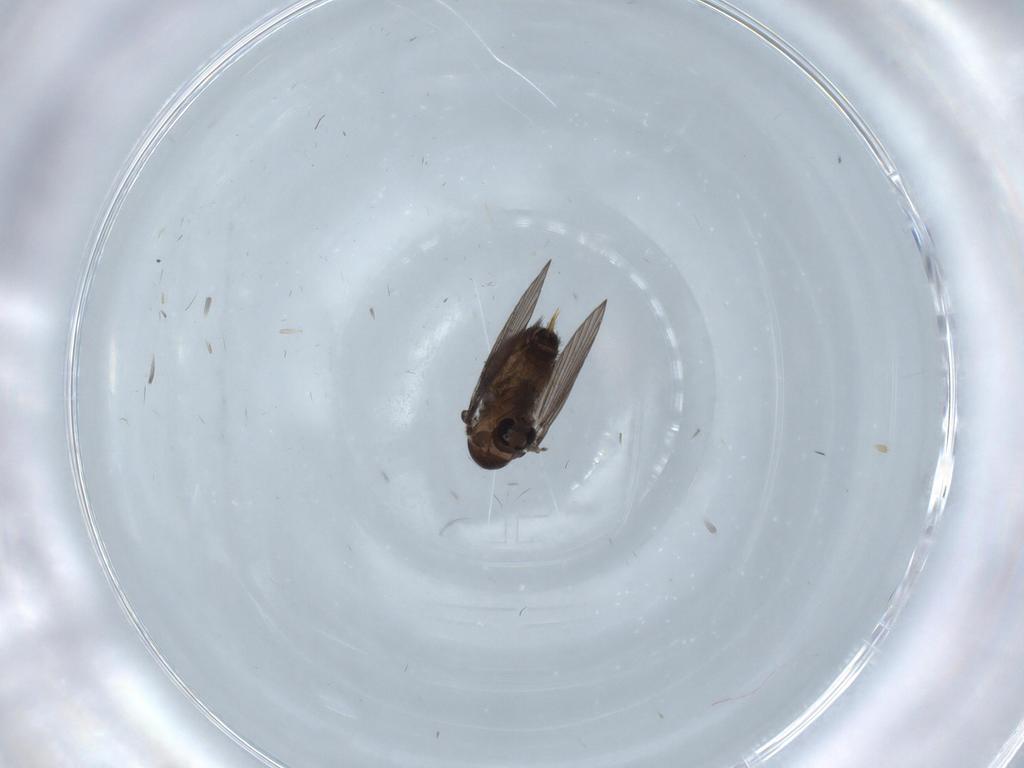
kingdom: Animalia
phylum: Arthropoda
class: Insecta
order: Diptera
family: Psychodidae
